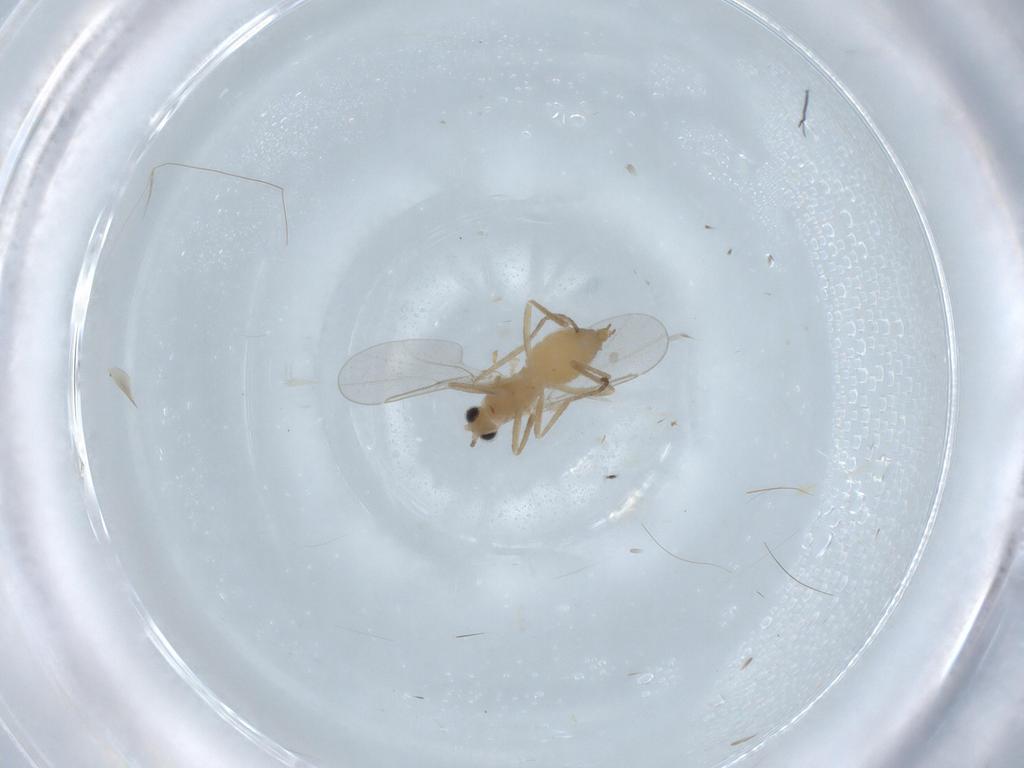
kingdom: Animalia
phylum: Arthropoda
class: Insecta
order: Diptera
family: Cecidomyiidae
